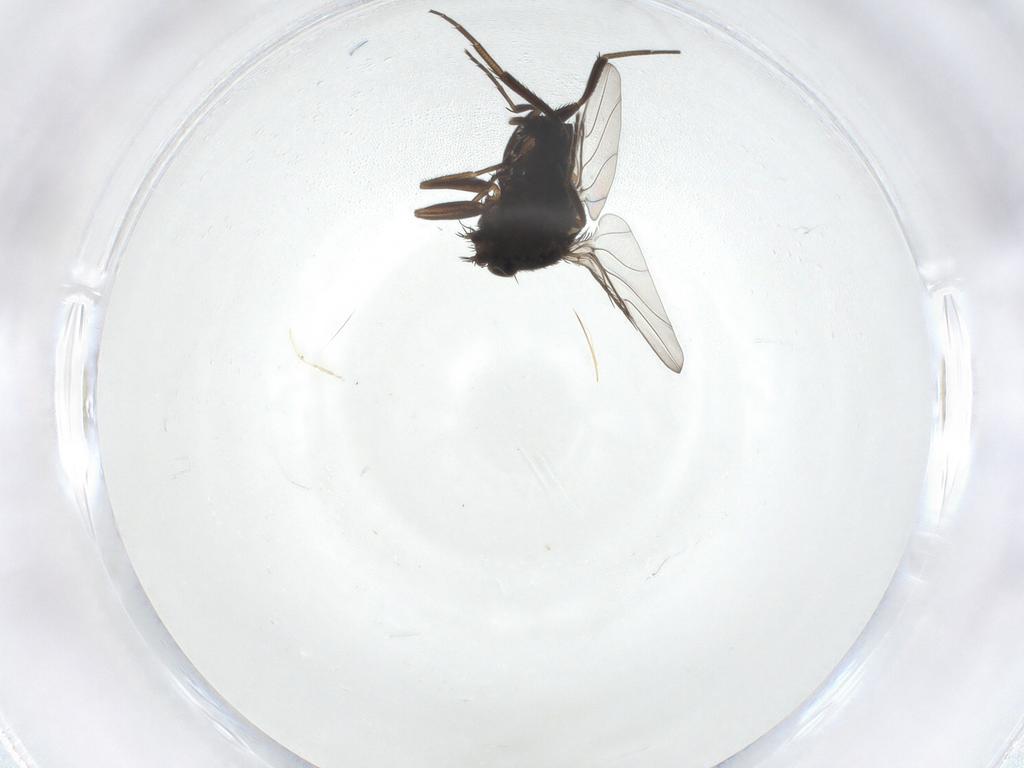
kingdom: Animalia
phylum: Arthropoda
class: Insecta
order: Diptera
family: Phoridae
